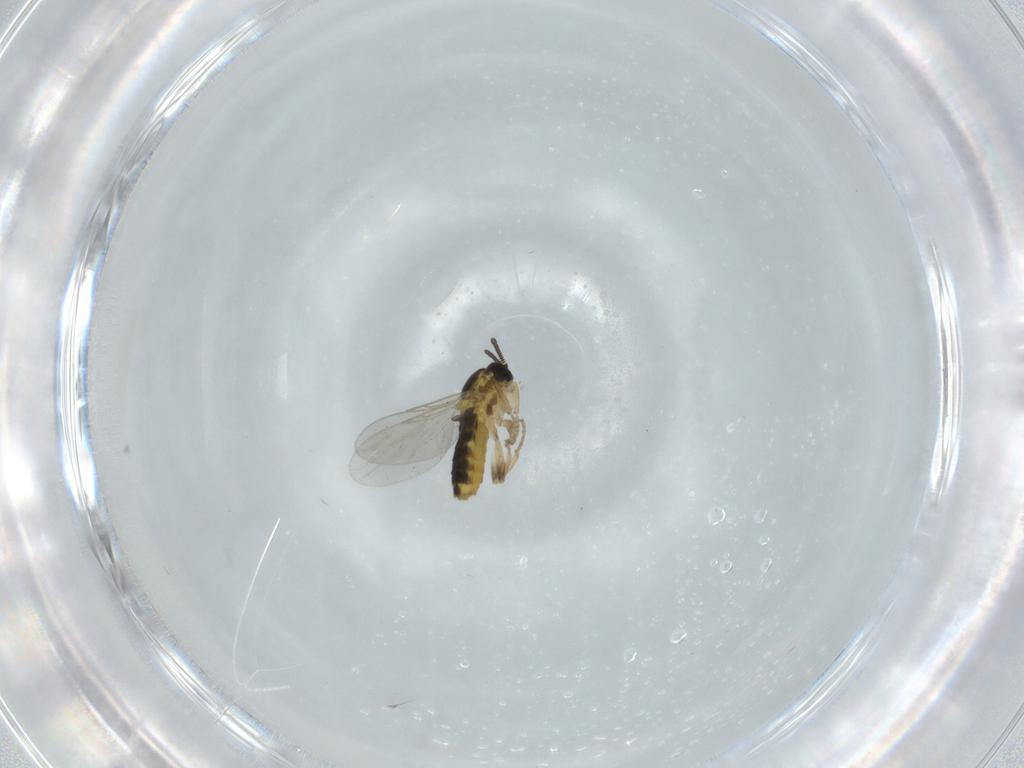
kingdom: Animalia
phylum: Arthropoda
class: Insecta
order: Diptera
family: Scatopsidae
